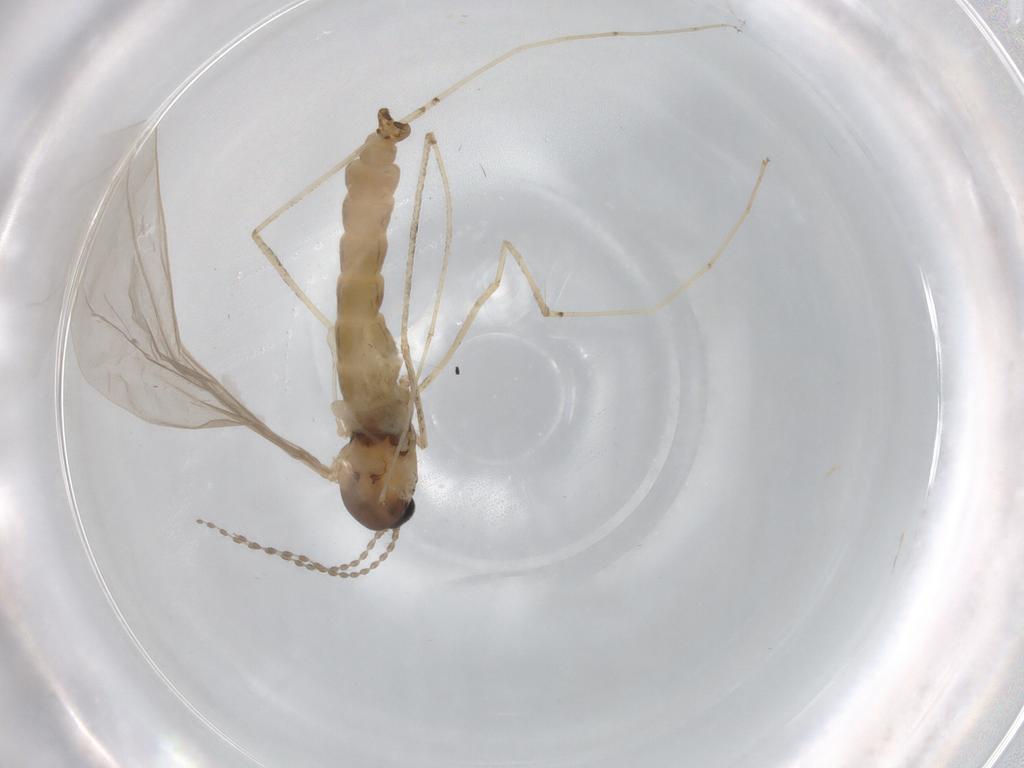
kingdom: Animalia
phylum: Arthropoda
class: Insecta
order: Diptera
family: Cecidomyiidae
